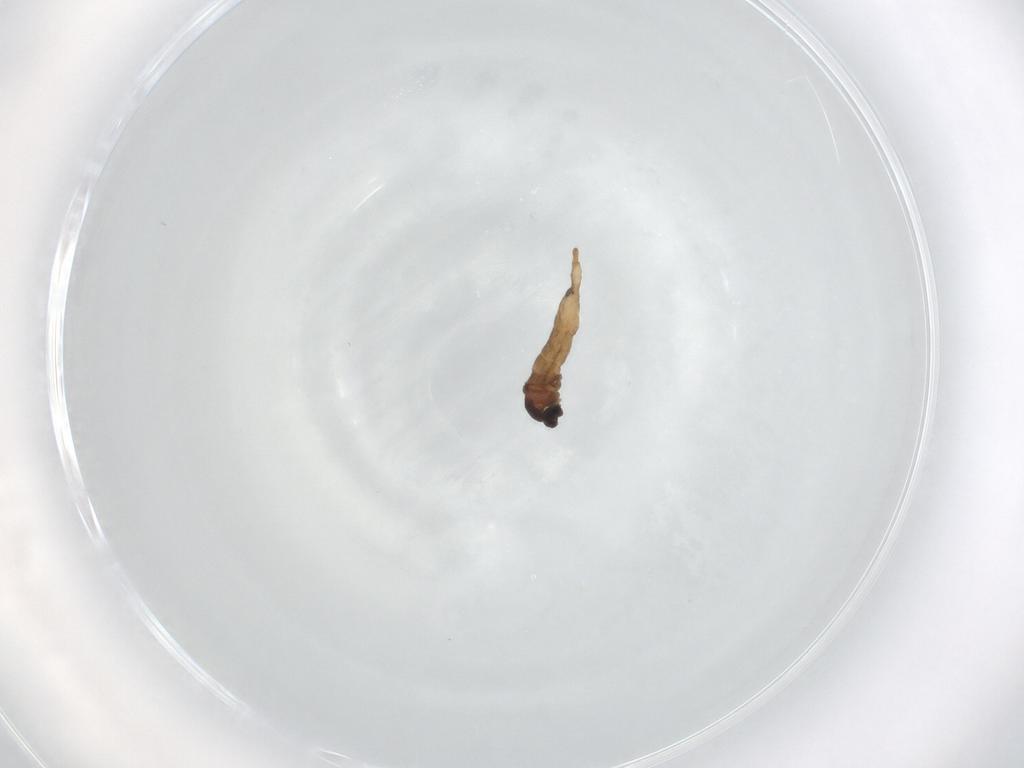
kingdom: Animalia
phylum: Arthropoda
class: Insecta
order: Diptera
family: Cecidomyiidae
